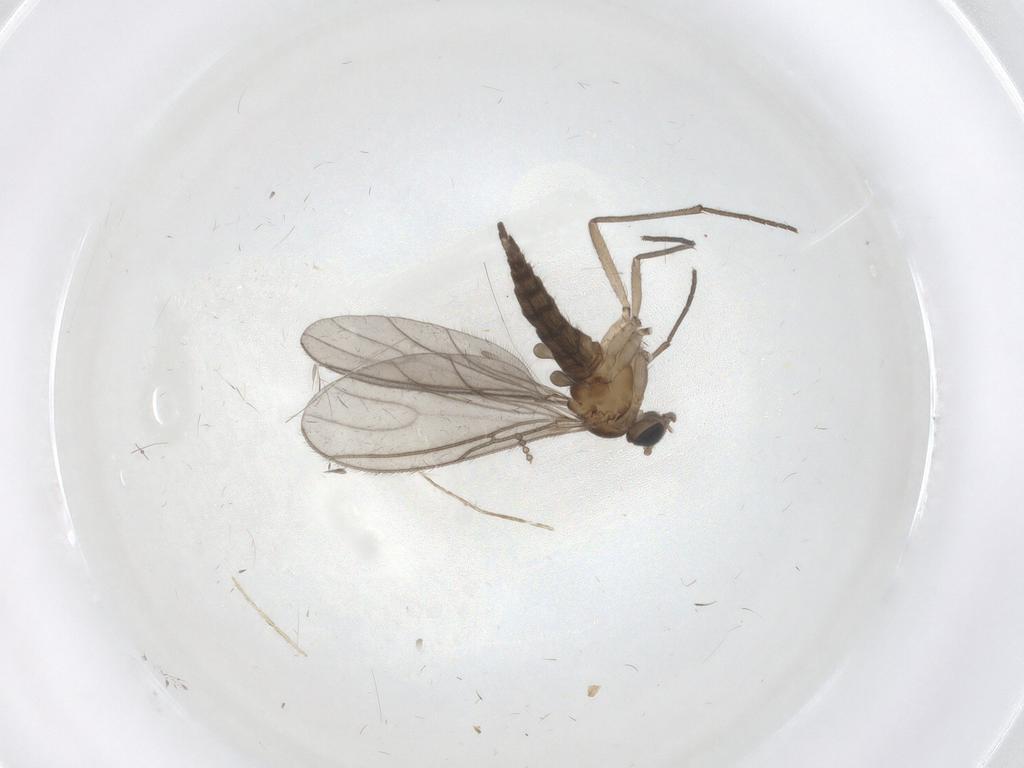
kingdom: Animalia
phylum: Arthropoda
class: Insecta
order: Diptera
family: Sciaridae
